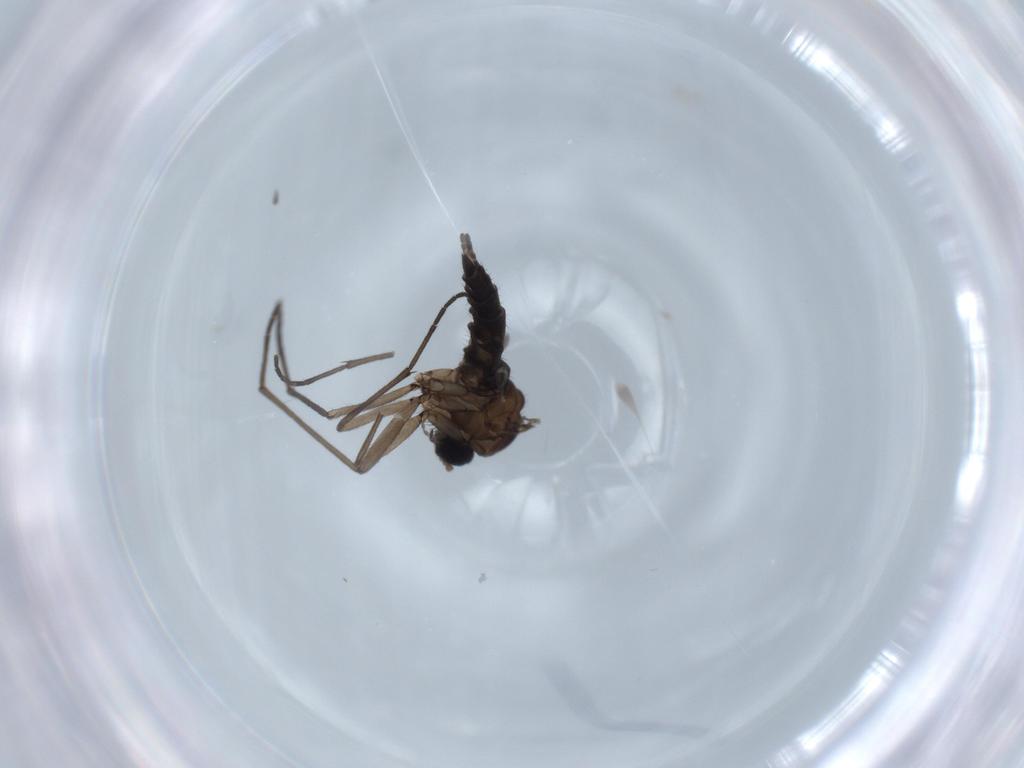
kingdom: Animalia
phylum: Arthropoda
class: Insecta
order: Diptera
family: Sciaridae
